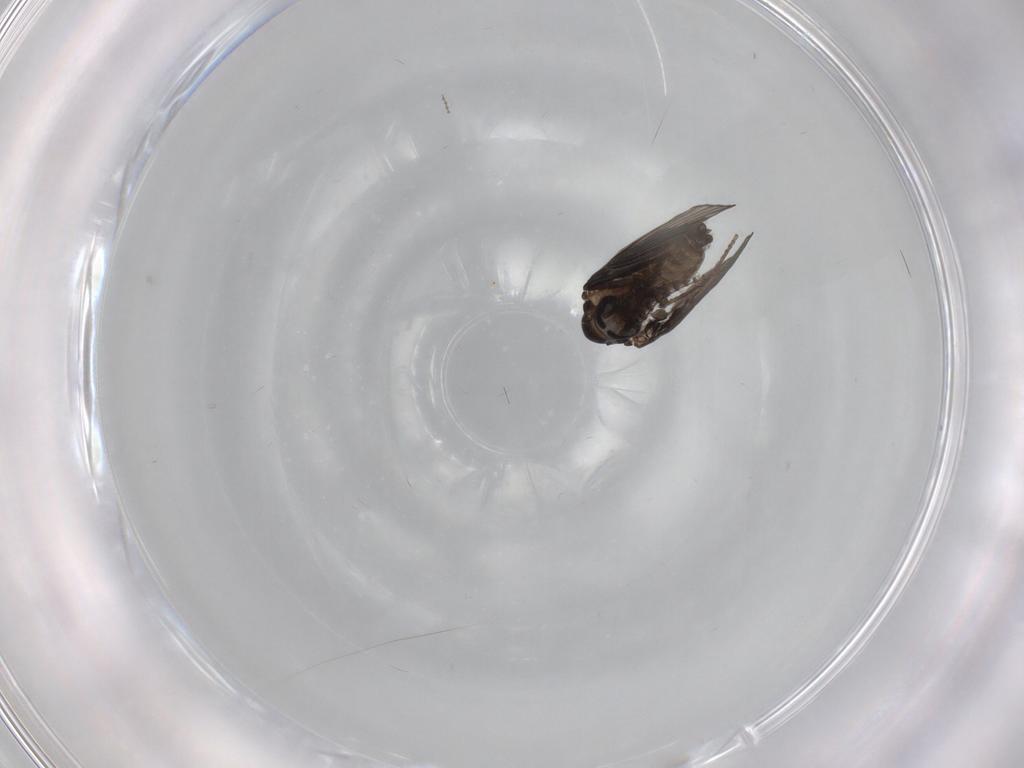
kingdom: Animalia
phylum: Arthropoda
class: Insecta
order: Diptera
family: Psychodidae
